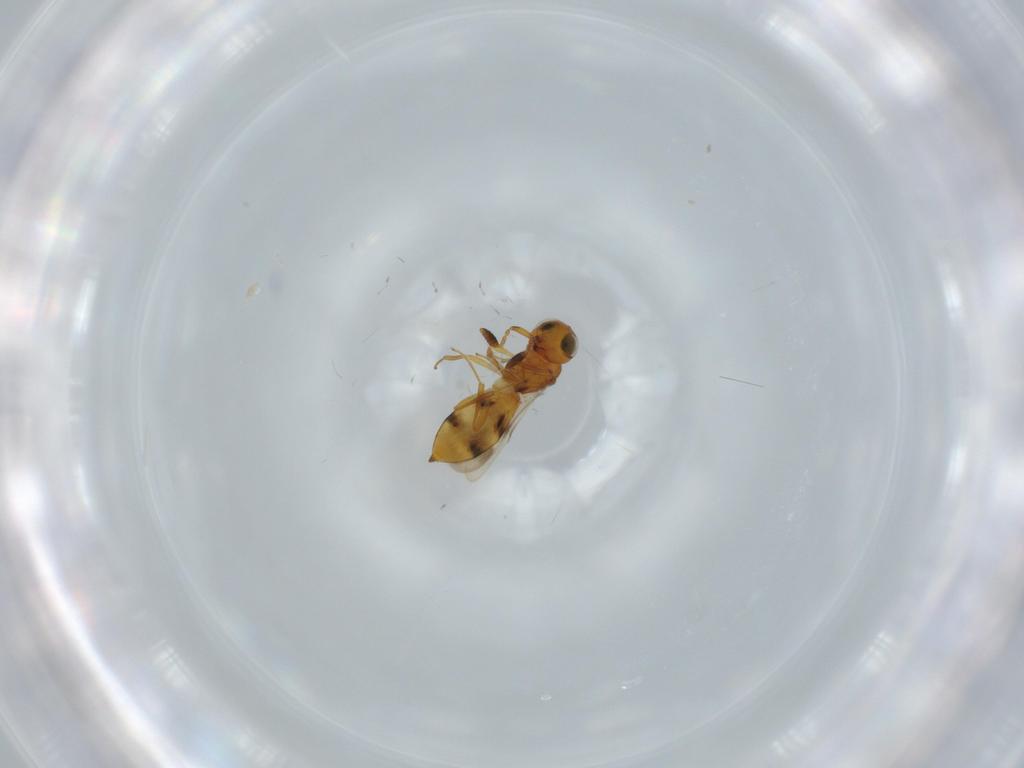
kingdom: Animalia
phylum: Arthropoda
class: Insecta
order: Hymenoptera
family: Scelionidae
